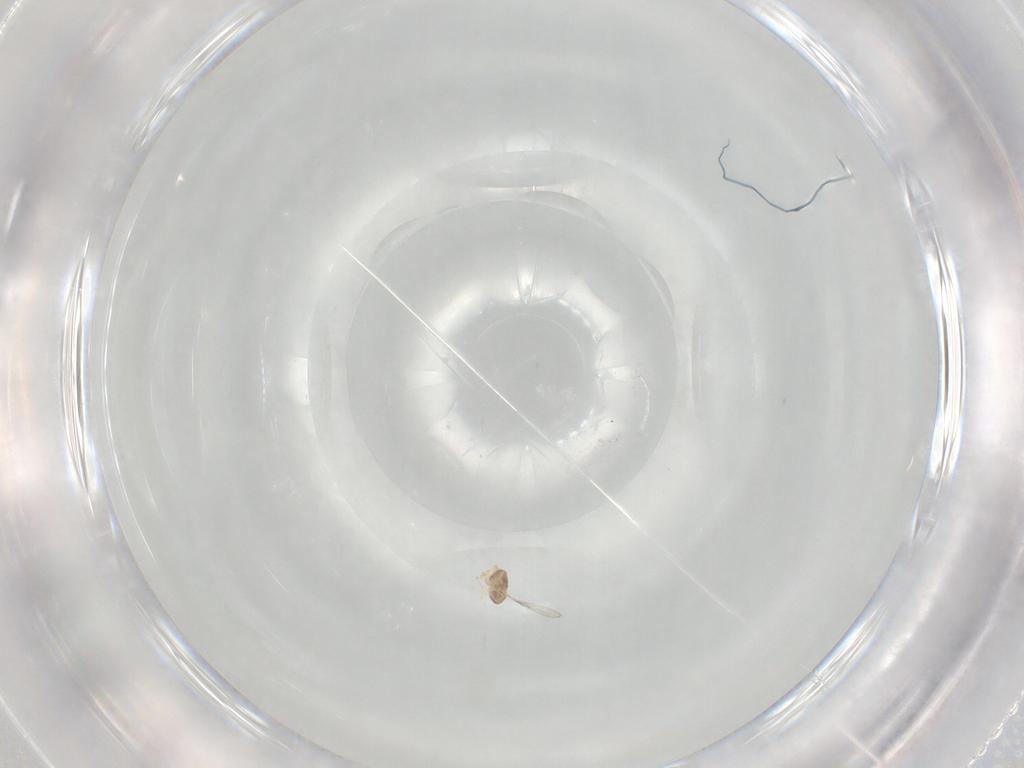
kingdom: Animalia
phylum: Arthropoda
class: Insecta
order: Hymenoptera
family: Trichogrammatidae
